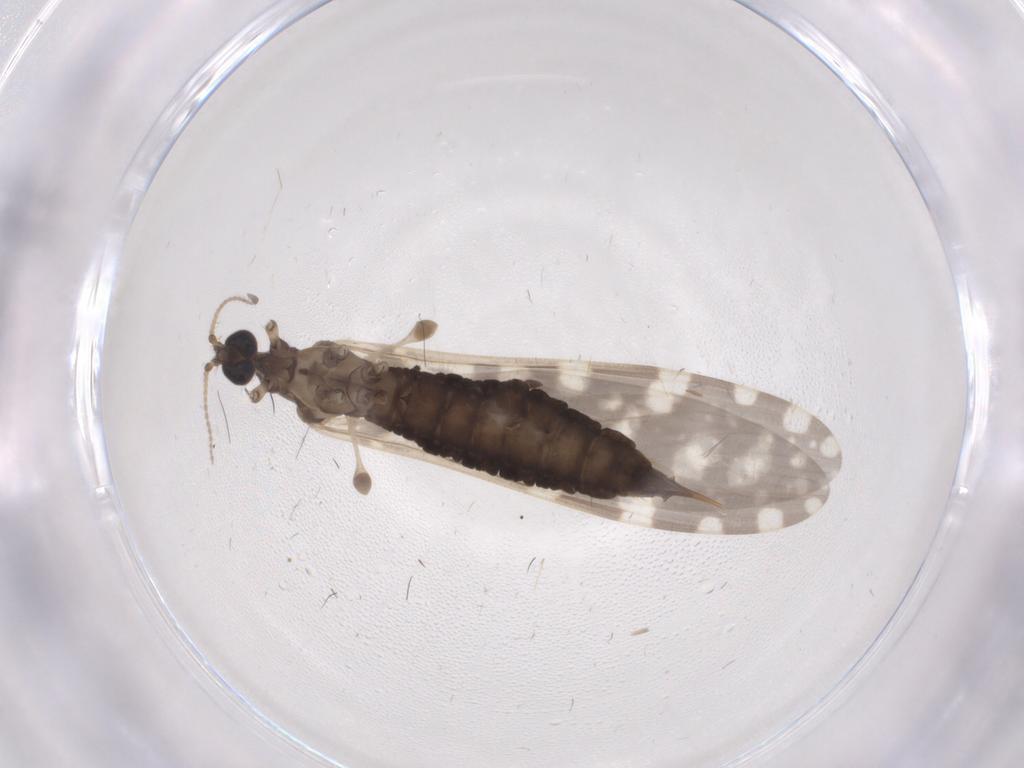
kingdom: Animalia
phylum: Arthropoda
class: Insecta
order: Diptera
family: Limoniidae
